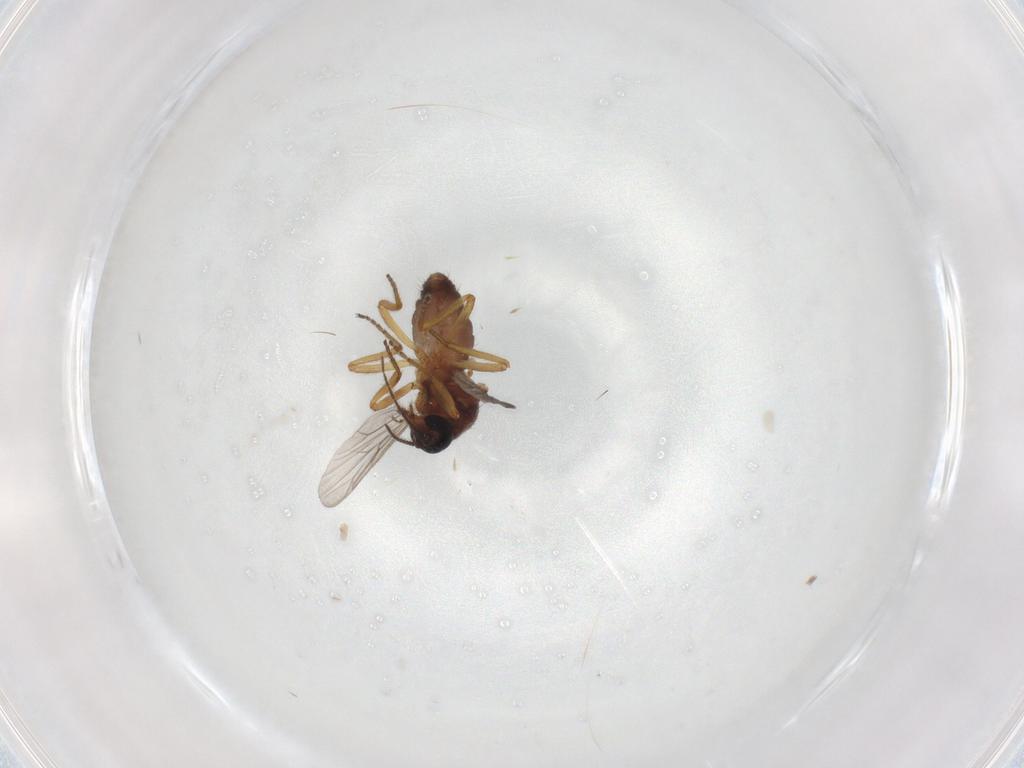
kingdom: Animalia
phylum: Arthropoda
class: Insecta
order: Diptera
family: Ceratopogonidae
